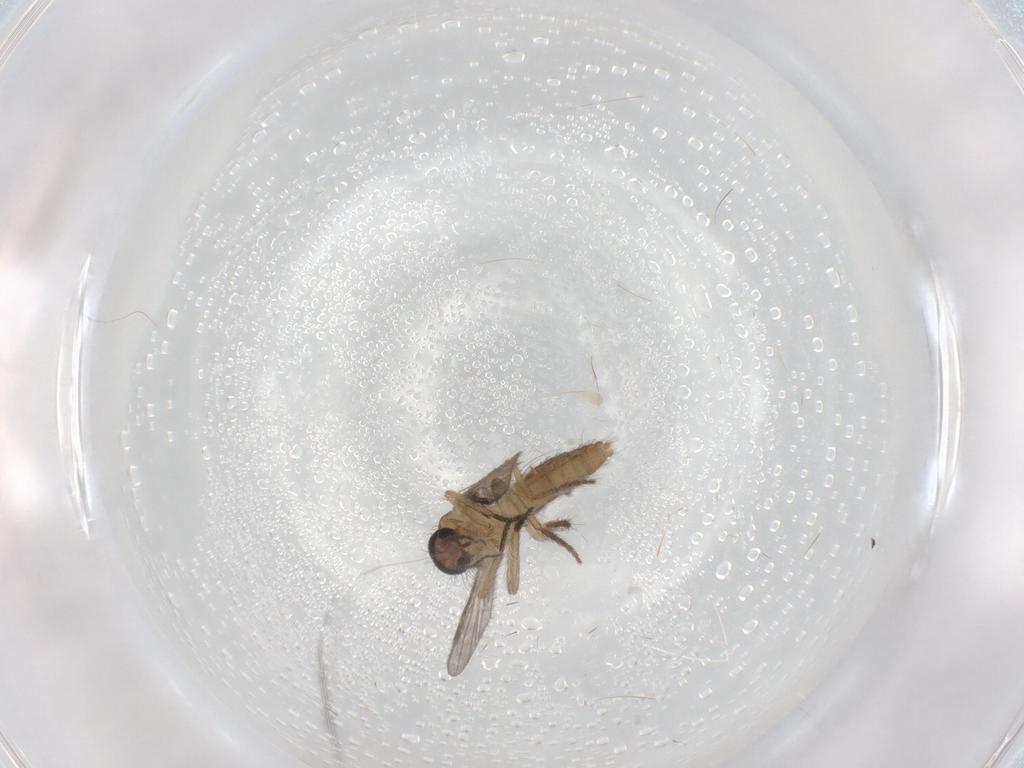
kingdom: Animalia
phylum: Arthropoda
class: Insecta
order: Diptera
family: Ceratopogonidae
